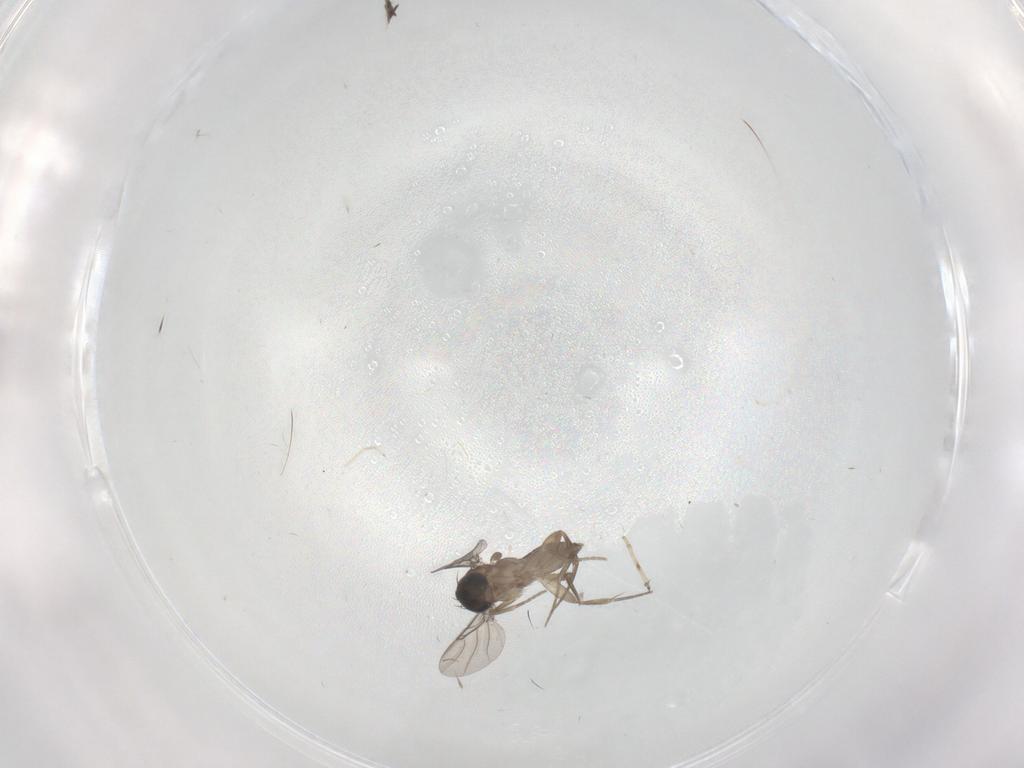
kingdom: Animalia
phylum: Arthropoda
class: Insecta
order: Diptera
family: Phoridae
